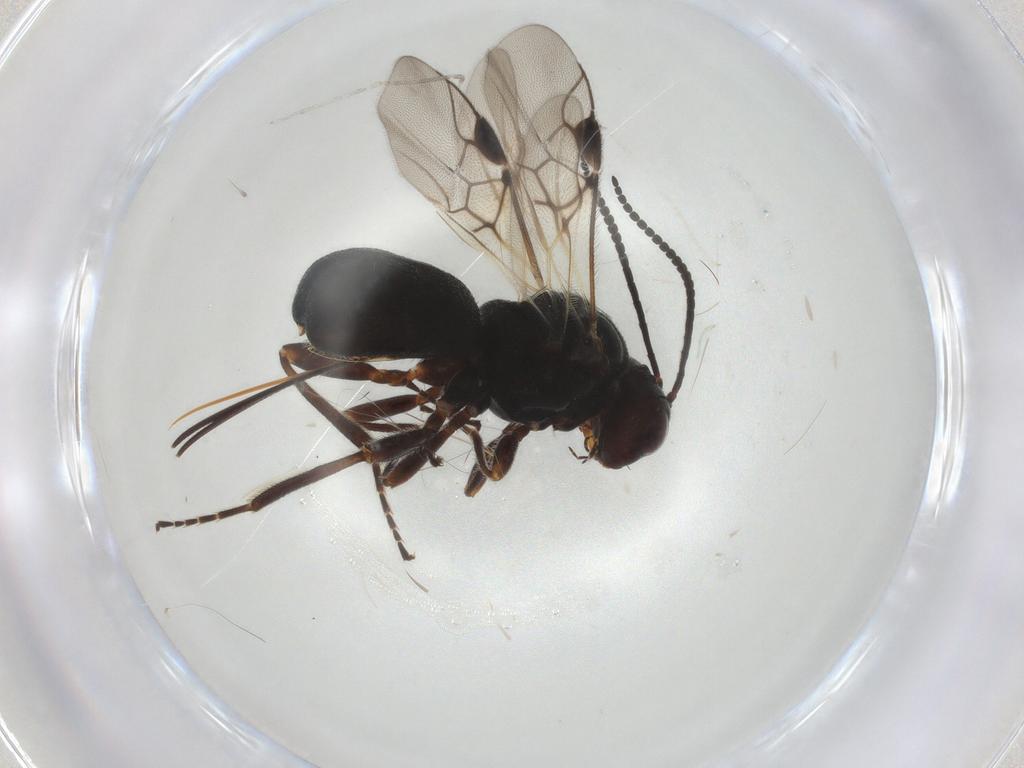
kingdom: Animalia
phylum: Arthropoda
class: Insecta
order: Hymenoptera
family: Braconidae
